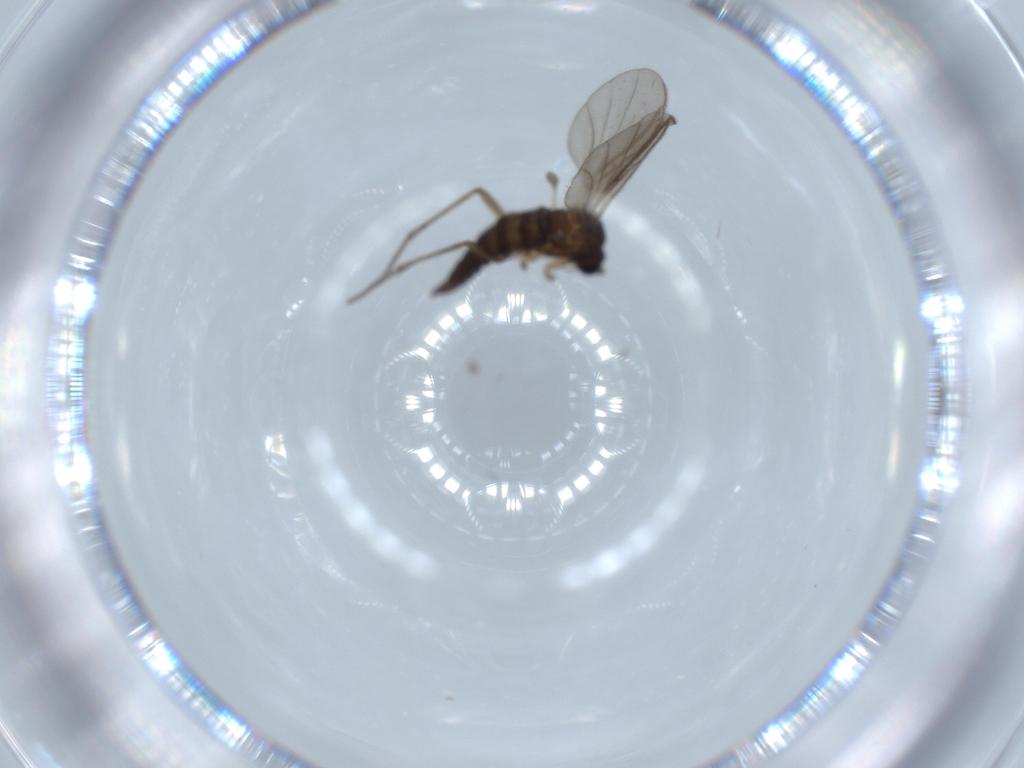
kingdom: Animalia
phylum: Arthropoda
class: Insecta
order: Diptera
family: Sciaridae
